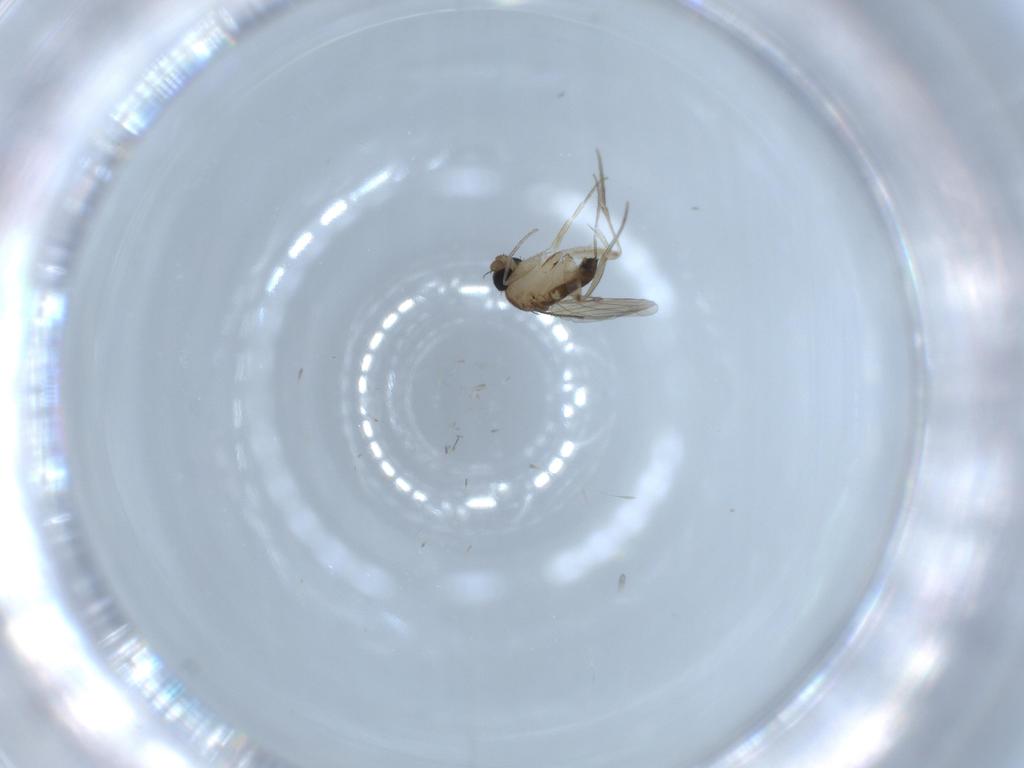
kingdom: Animalia
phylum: Arthropoda
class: Insecta
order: Diptera
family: Phoridae
